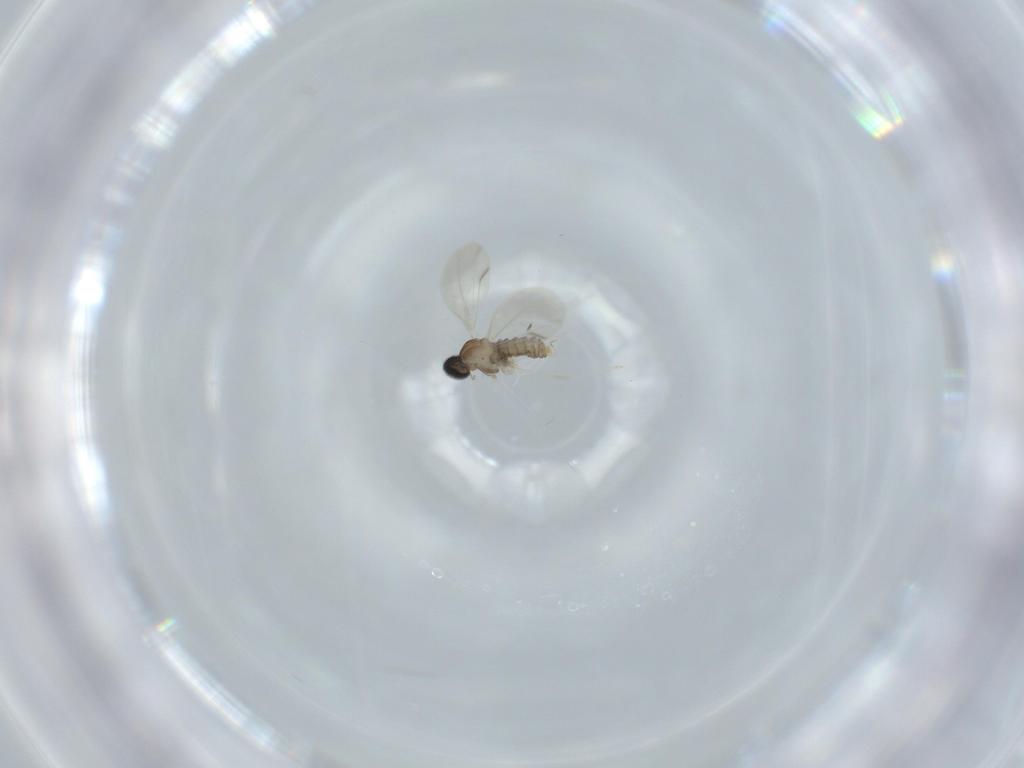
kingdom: Animalia
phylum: Arthropoda
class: Insecta
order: Diptera
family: Cecidomyiidae
